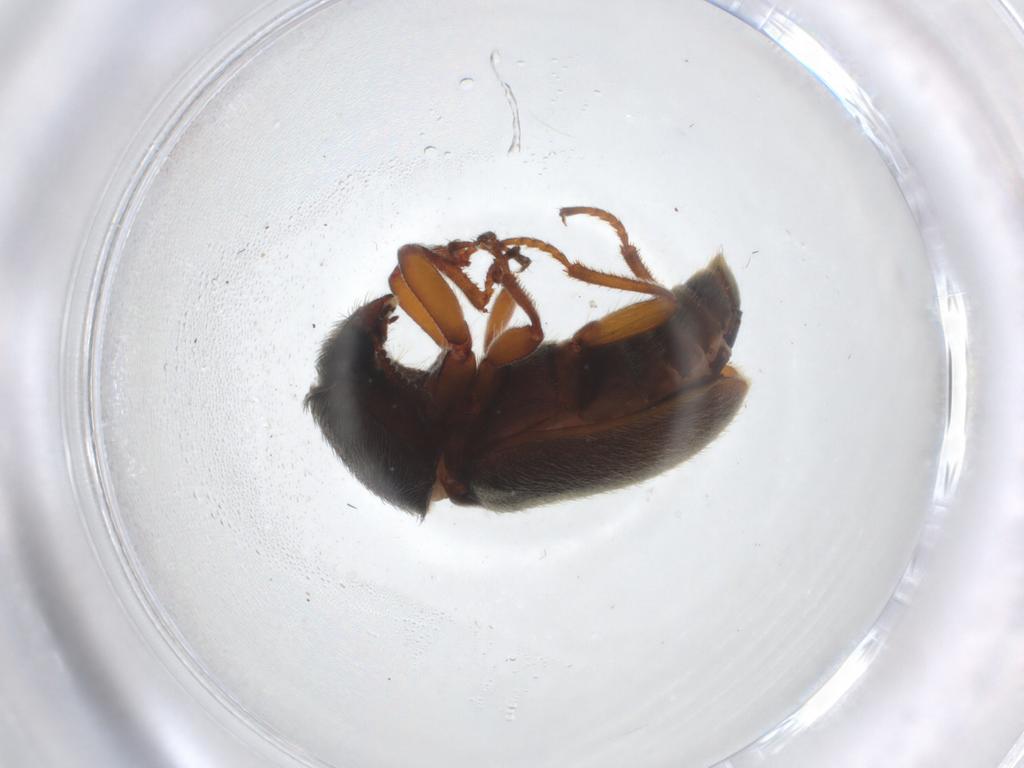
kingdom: Animalia
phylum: Arthropoda
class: Insecta
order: Coleoptera
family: Melyridae
